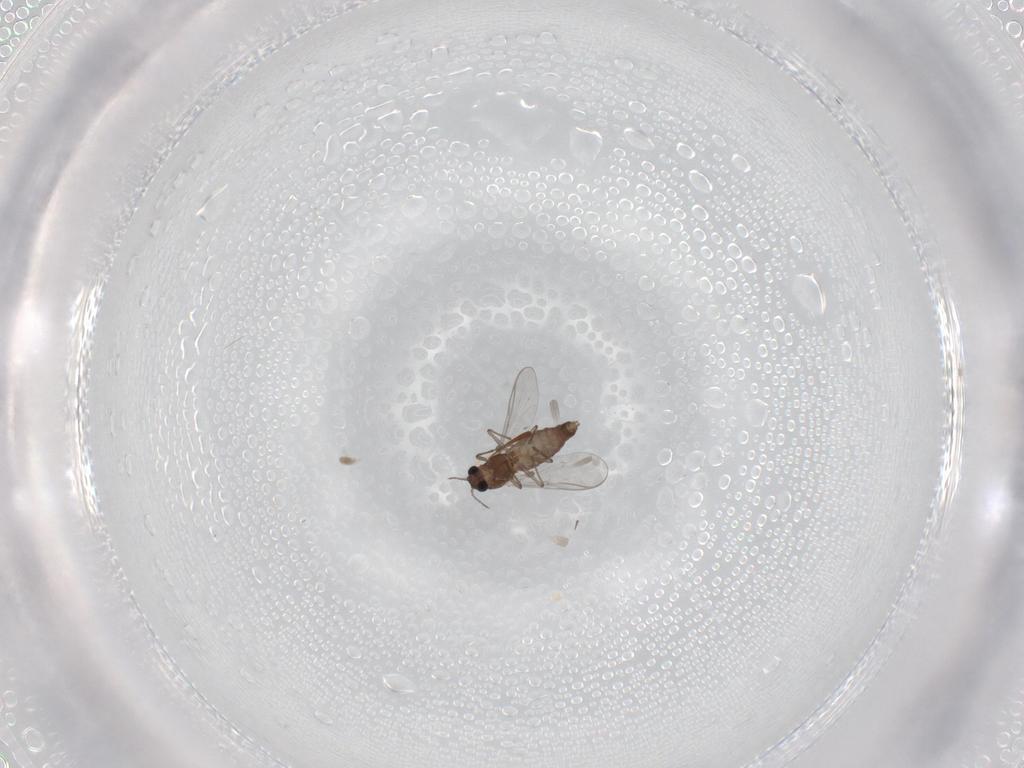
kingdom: Animalia
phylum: Arthropoda
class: Insecta
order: Diptera
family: Chironomidae
